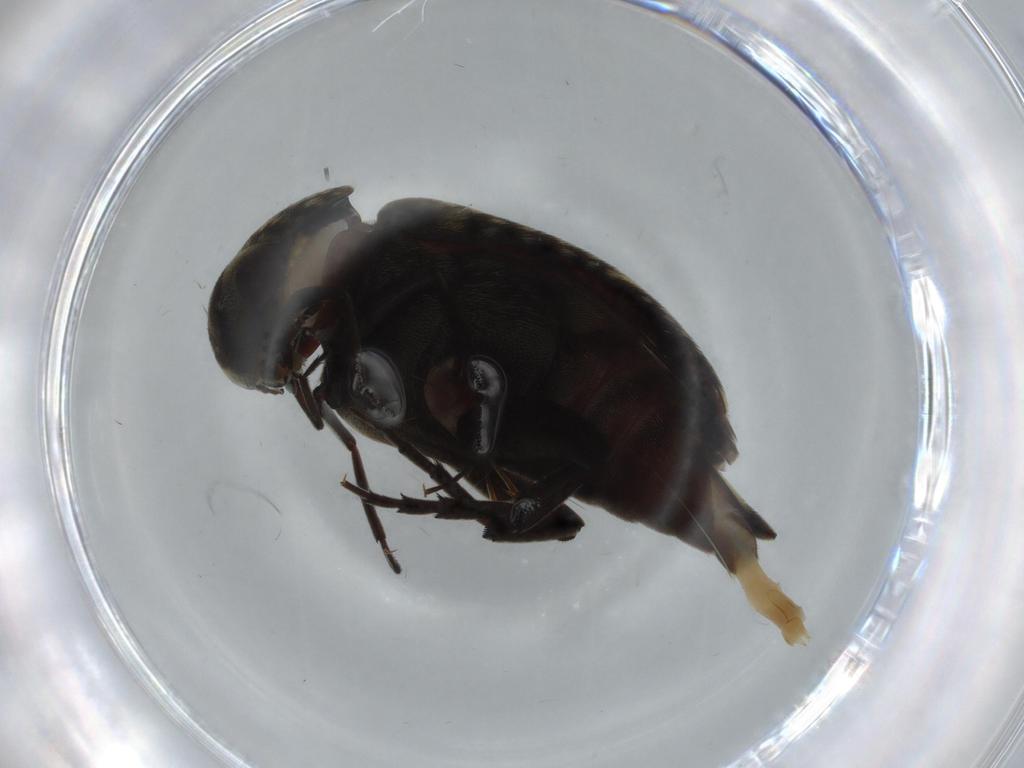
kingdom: Animalia
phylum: Arthropoda
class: Insecta
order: Coleoptera
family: Chrysomelidae
